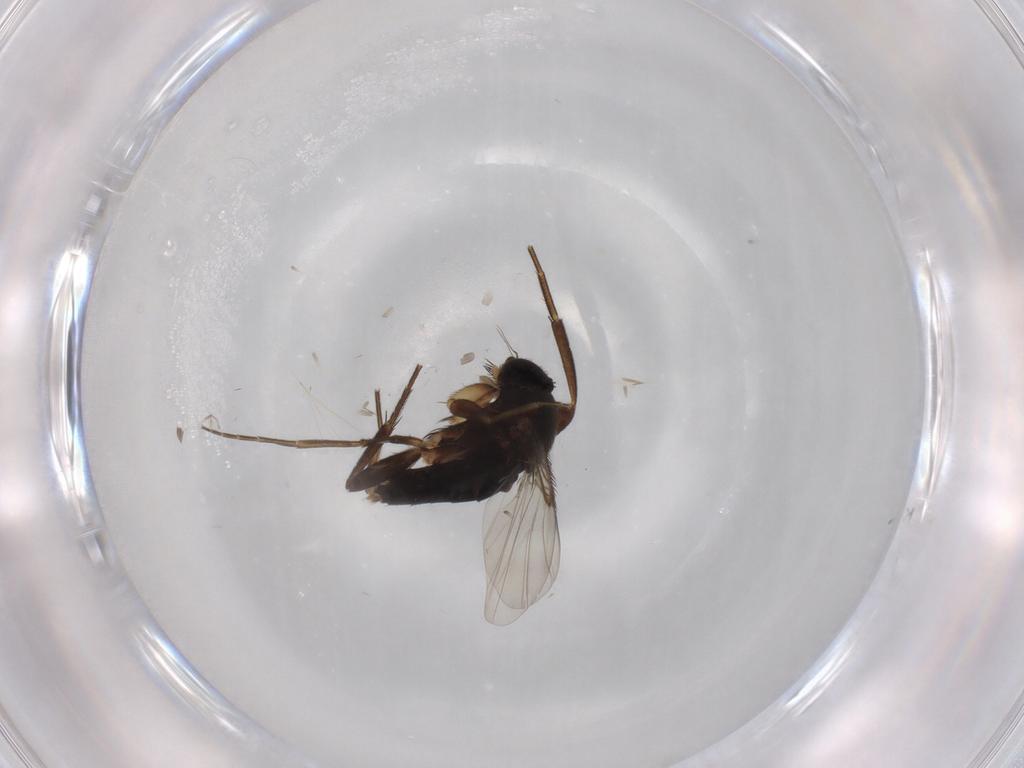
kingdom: Animalia
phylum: Arthropoda
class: Insecta
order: Diptera
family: Phoridae
